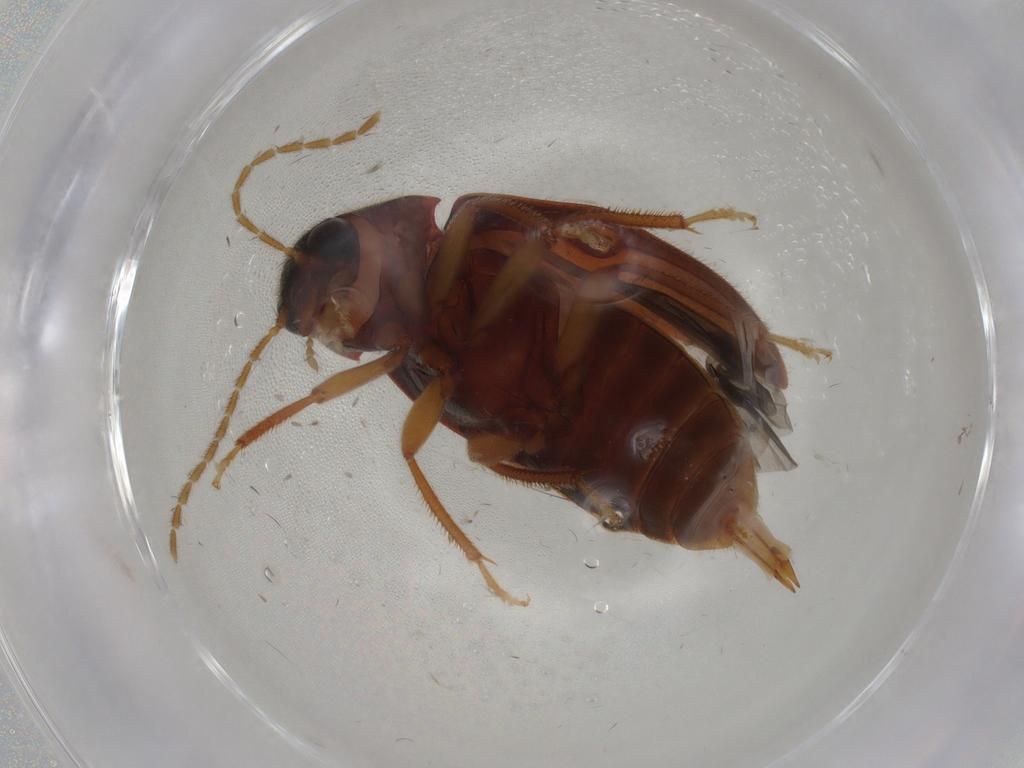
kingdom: Animalia
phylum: Arthropoda
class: Insecta
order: Coleoptera
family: Ptilodactylidae
